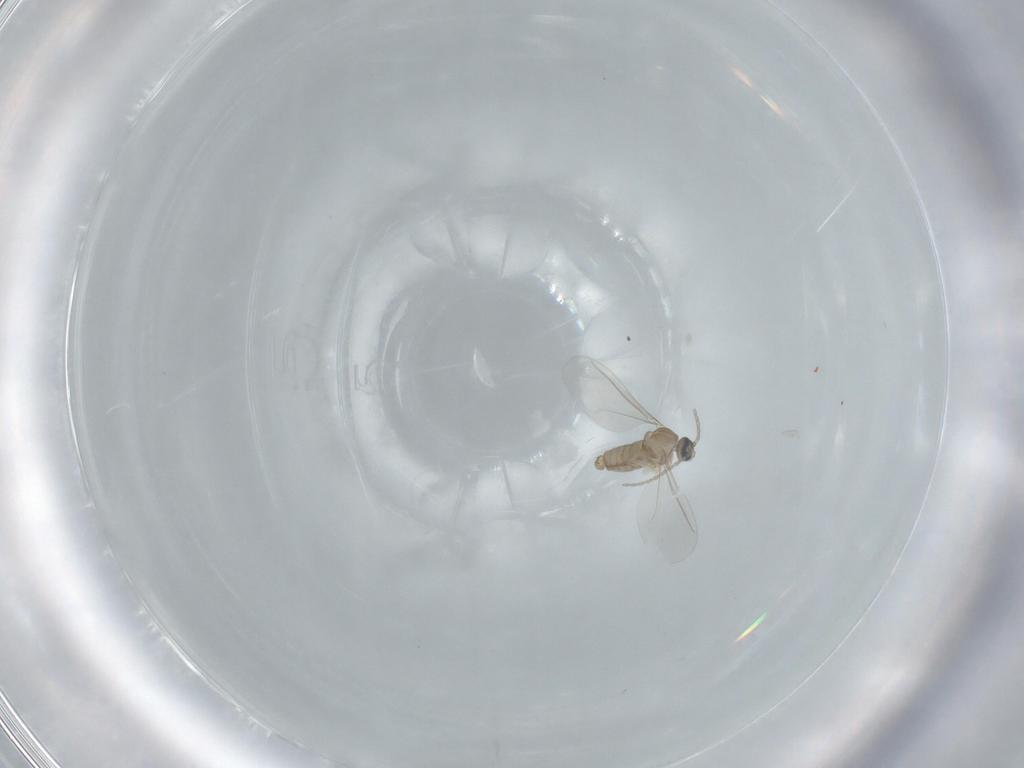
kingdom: Animalia
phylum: Arthropoda
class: Insecta
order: Diptera
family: Cecidomyiidae
